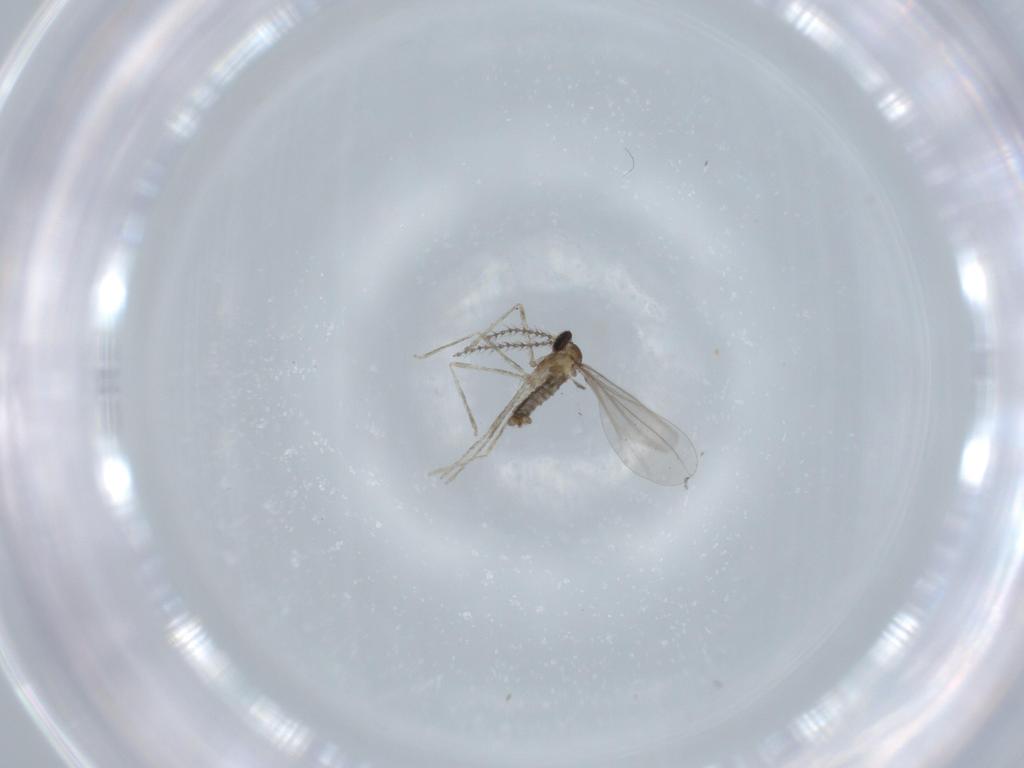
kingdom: Animalia
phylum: Arthropoda
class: Insecta
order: Diptera
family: Cecidomyiidae
